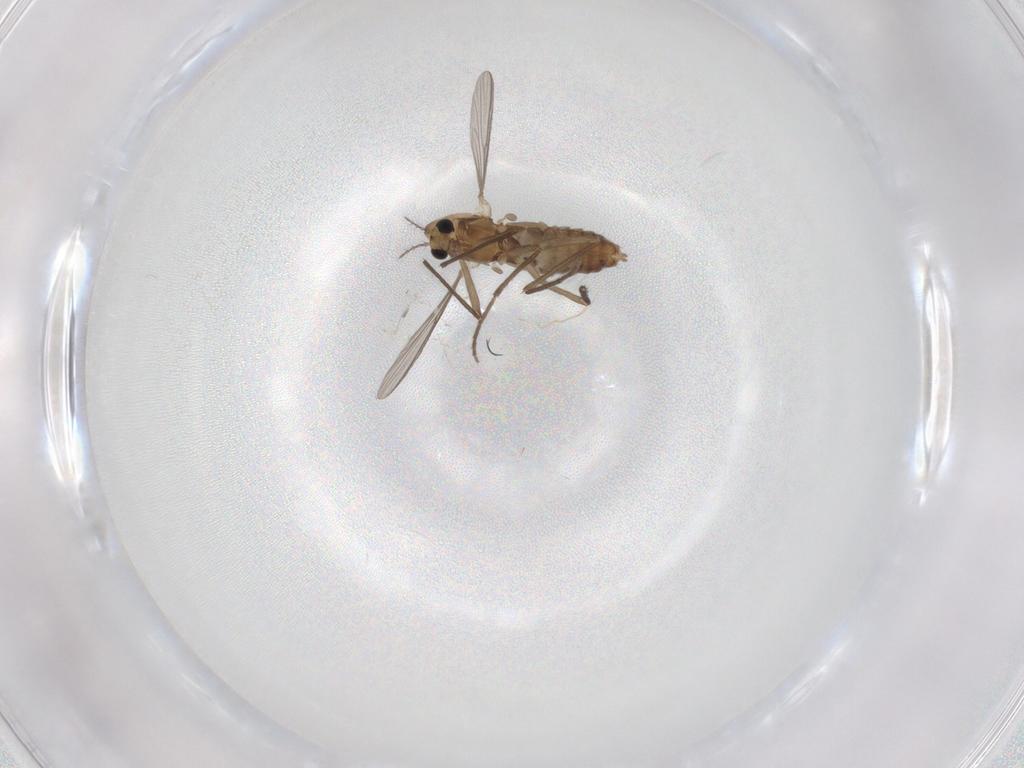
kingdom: Animalia
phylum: Arthropoda
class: Insecta
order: Diptera
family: Chironomidae
